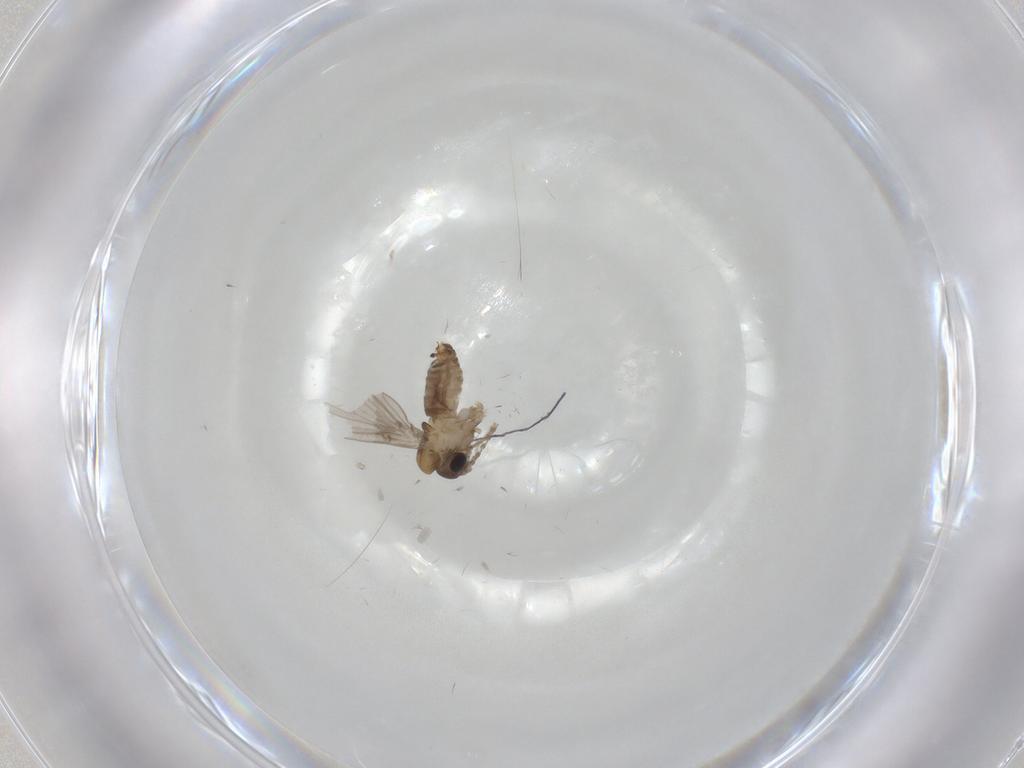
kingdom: Animalia
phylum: Arthropoda
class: Insecta
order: Diptera
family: Psychodidae
